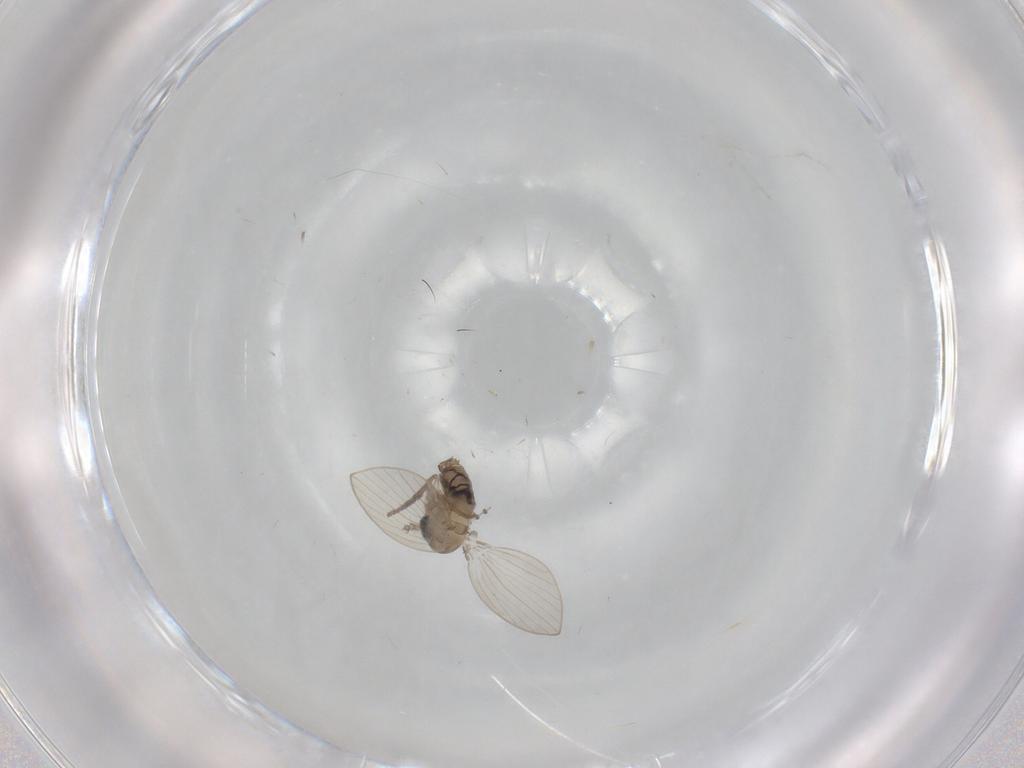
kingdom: Animalia
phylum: Arthropoda
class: Insecta
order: Diptera
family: Psychodidae
